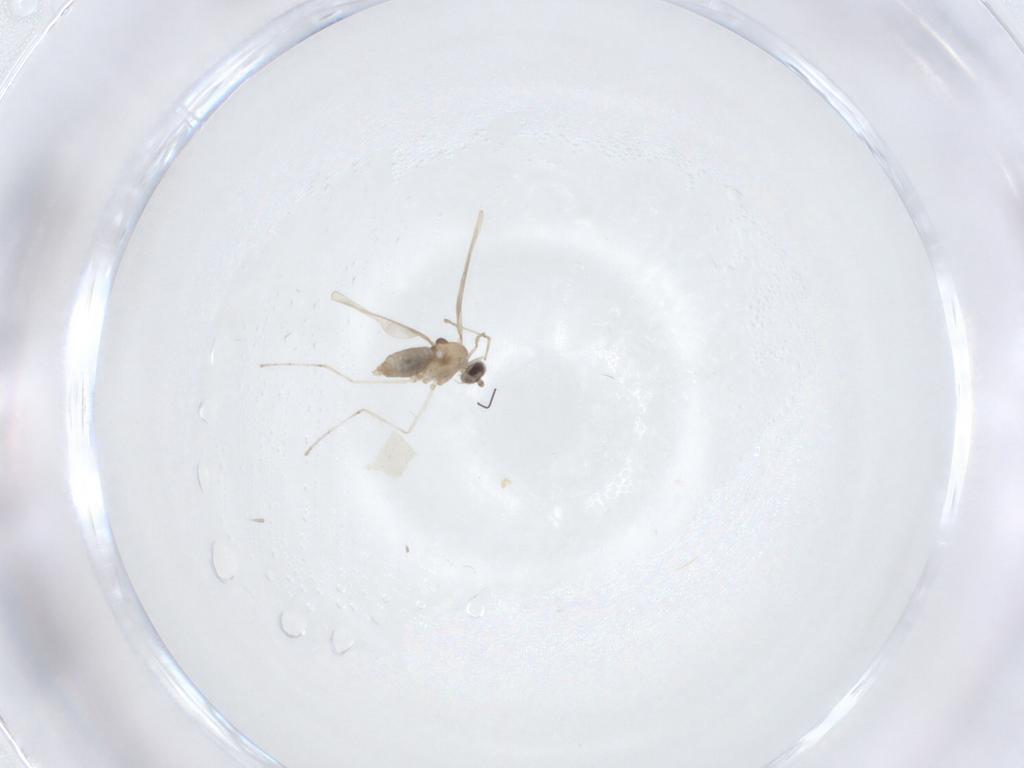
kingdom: Animalia
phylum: Arthropoda
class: Insecta
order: Diptera
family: Cecidomyiidae
